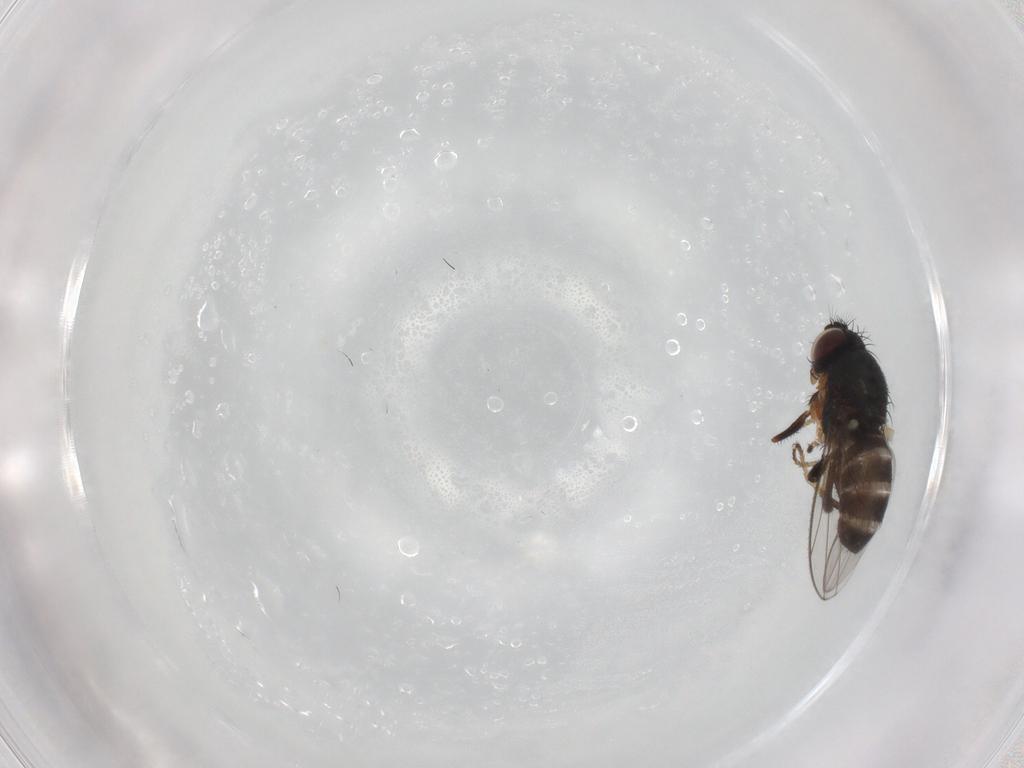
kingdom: Animalia
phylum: Arthropoda
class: Insecta
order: Diptera
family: Ephydridae
